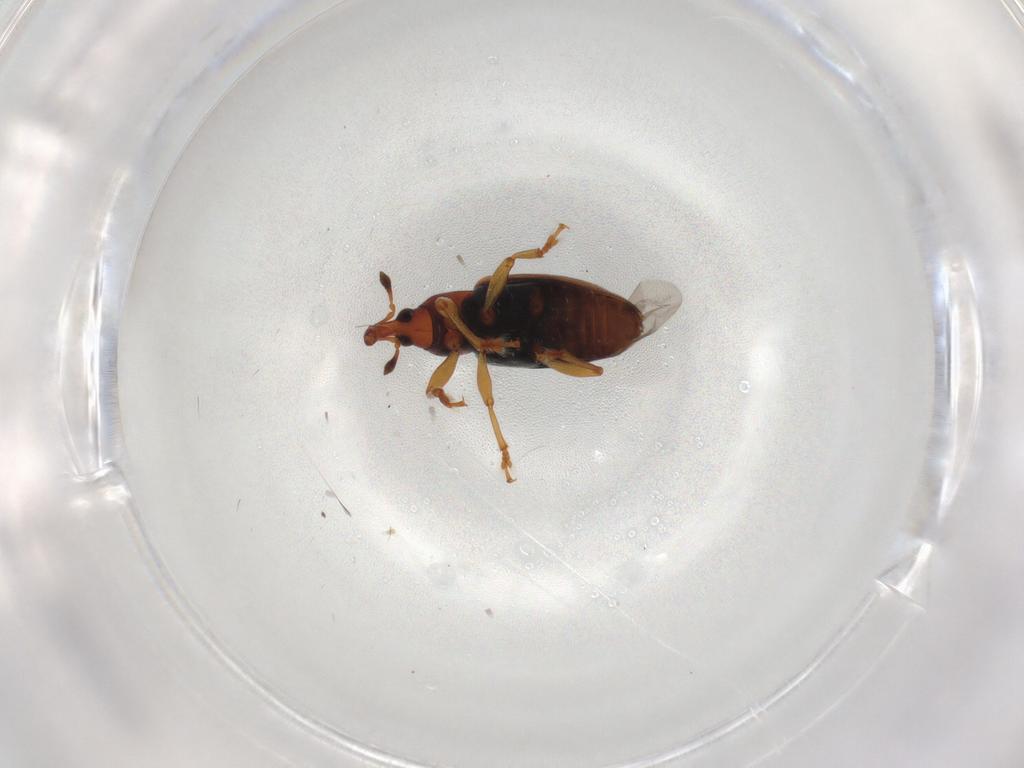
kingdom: Animalia
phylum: Arthropoda
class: Insecta
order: Coleoptera
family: Curculionidae
